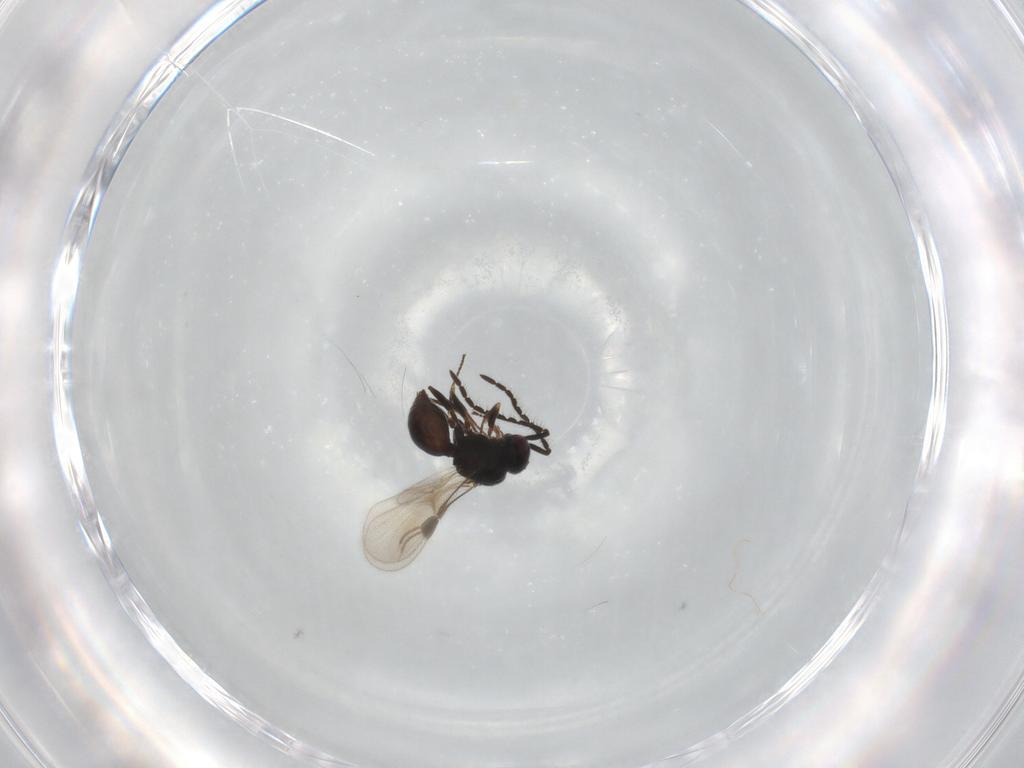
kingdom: Animalia
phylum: Arthropoda
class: Insecta
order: Hymenoptera
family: Megaspilidae
